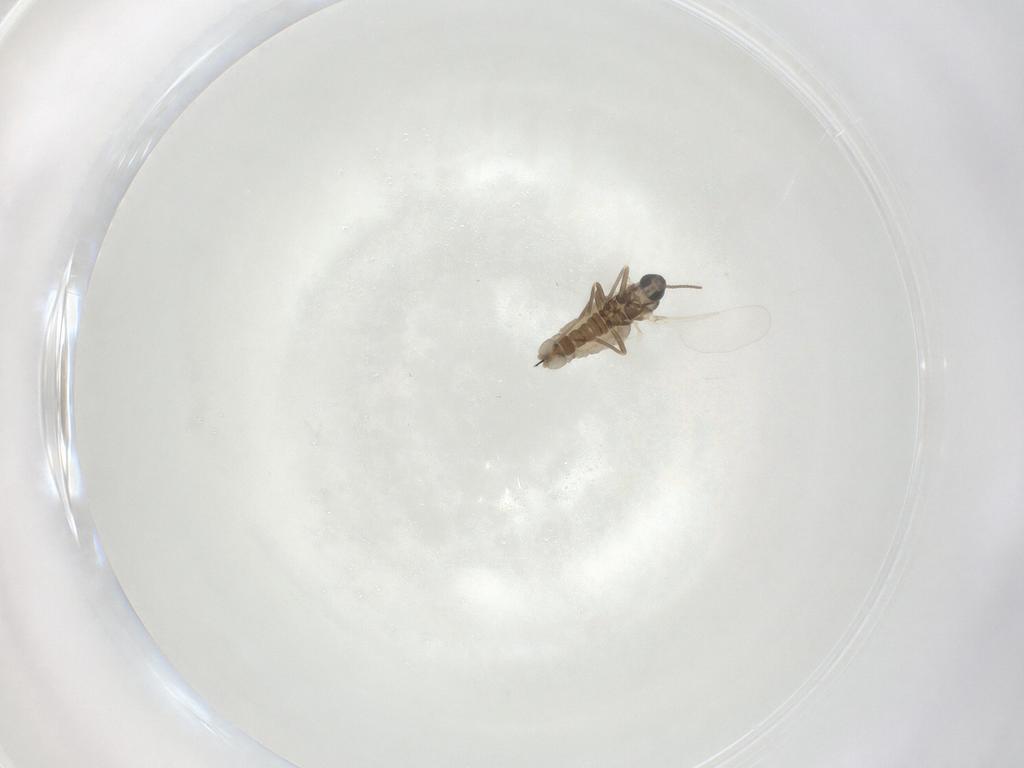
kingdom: Animalia
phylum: Arthropoda
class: Insecta
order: Diptera
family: Cecidomyiidae
